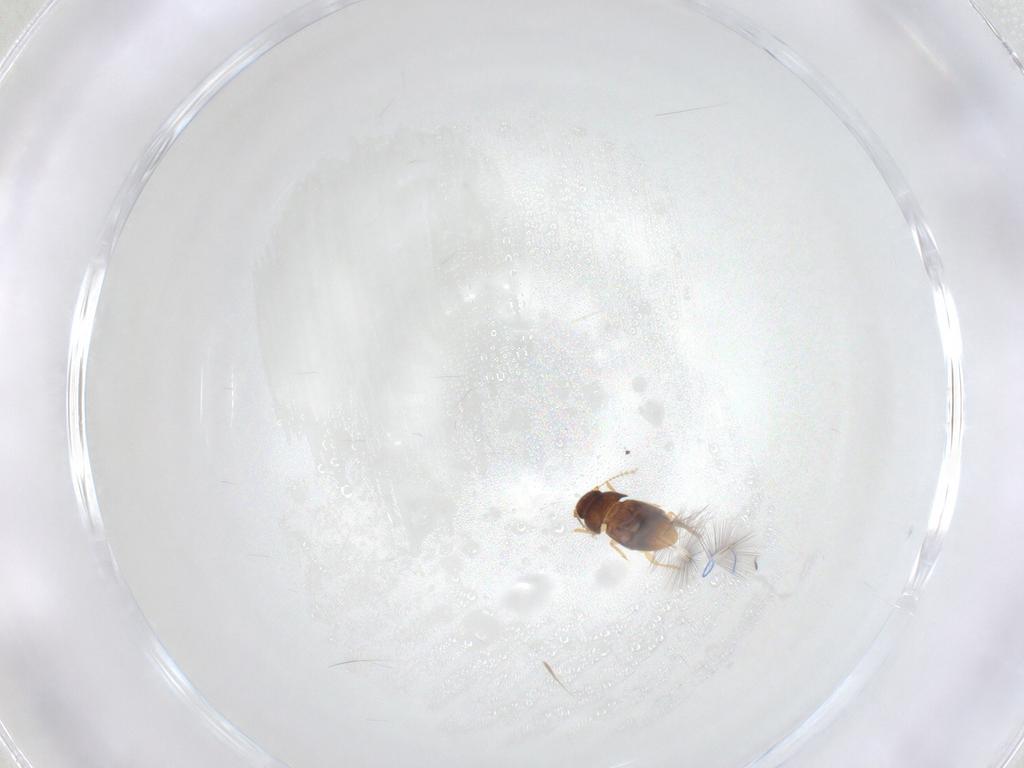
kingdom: Animalia
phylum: Arthropoda
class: Insecta
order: Coleoptera
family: Ptiliidae
